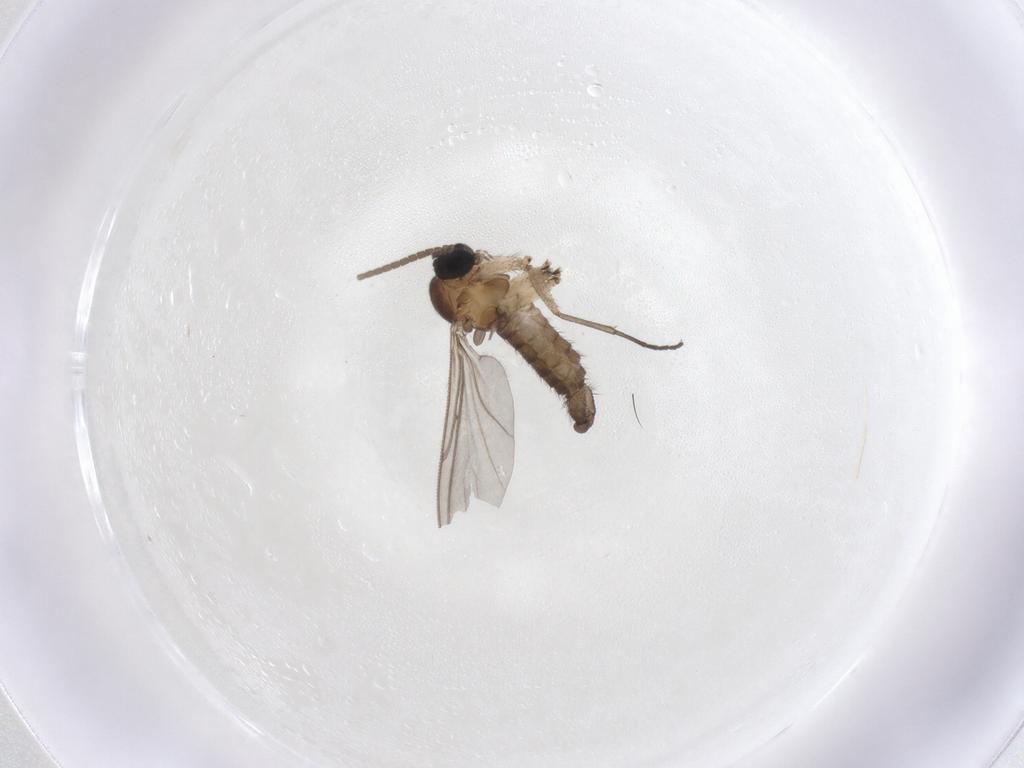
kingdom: Animalia
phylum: Arthropoda
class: Insecta
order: Diptera
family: Sciaridae
